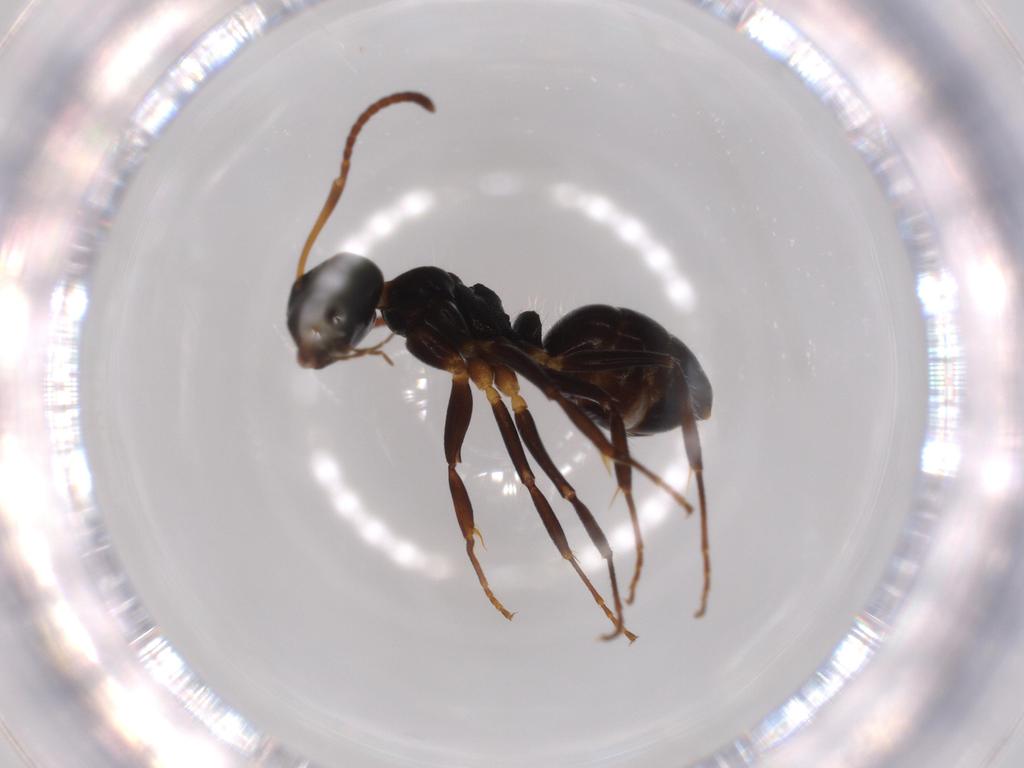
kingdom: Animalia
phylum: Arthropoda
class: Insecta
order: Hymenoptera
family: Formicidae
